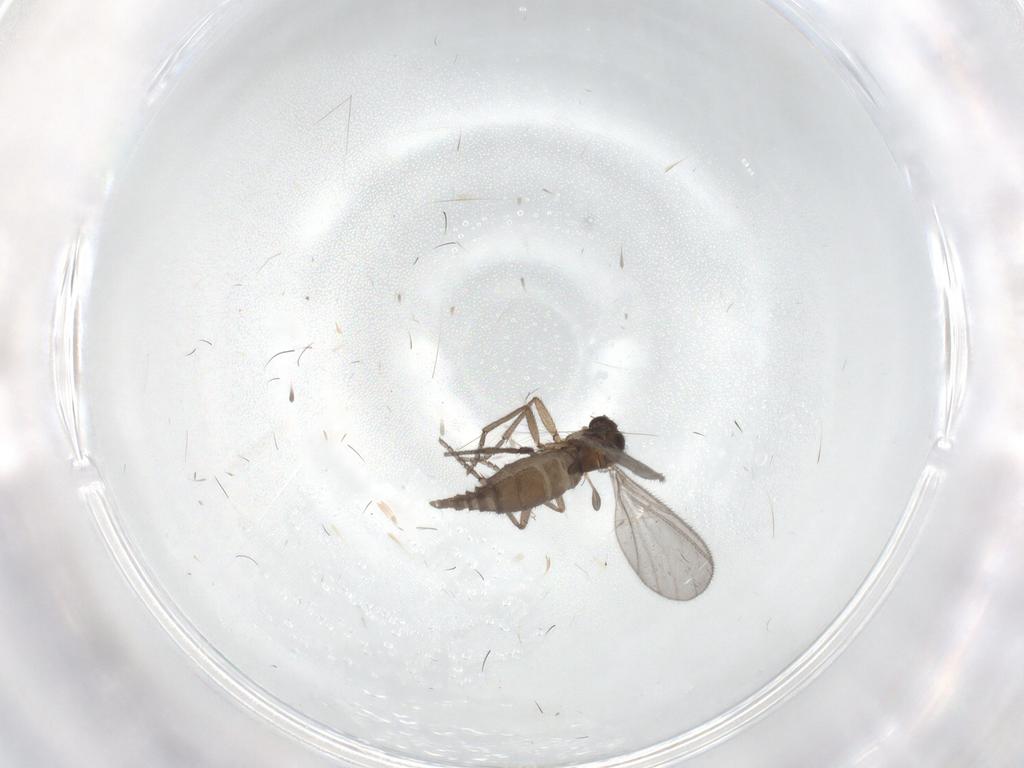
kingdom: Animalia
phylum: Arthropoda
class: Insecta
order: Diptera
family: Sciaridae
